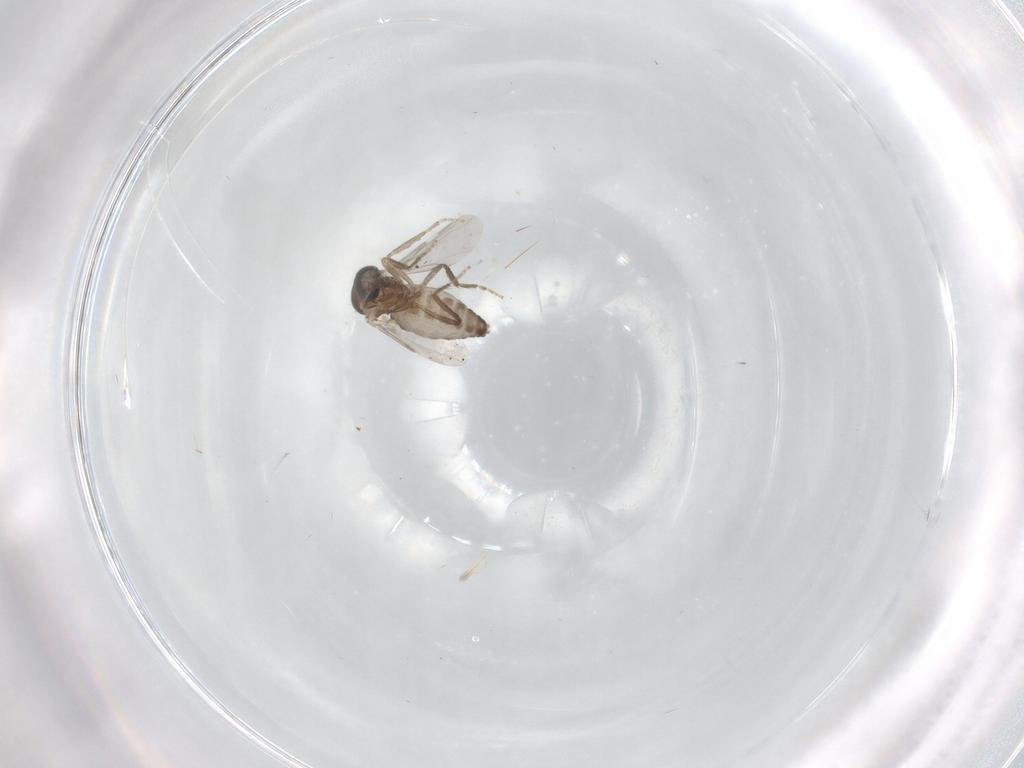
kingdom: Animalia
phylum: Arthropoda
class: Insecta
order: Diptera
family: Ceratopogonidae
